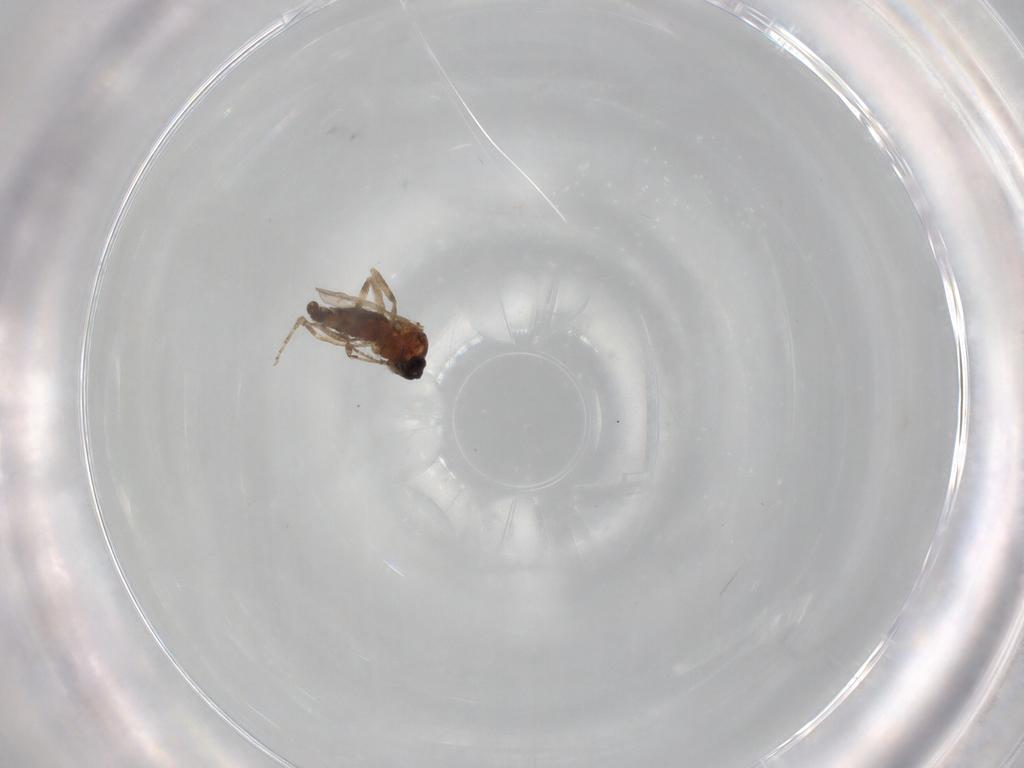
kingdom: Animalia
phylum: Arthropoda
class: Insecta
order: Diptera
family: Ceratopogonidae
